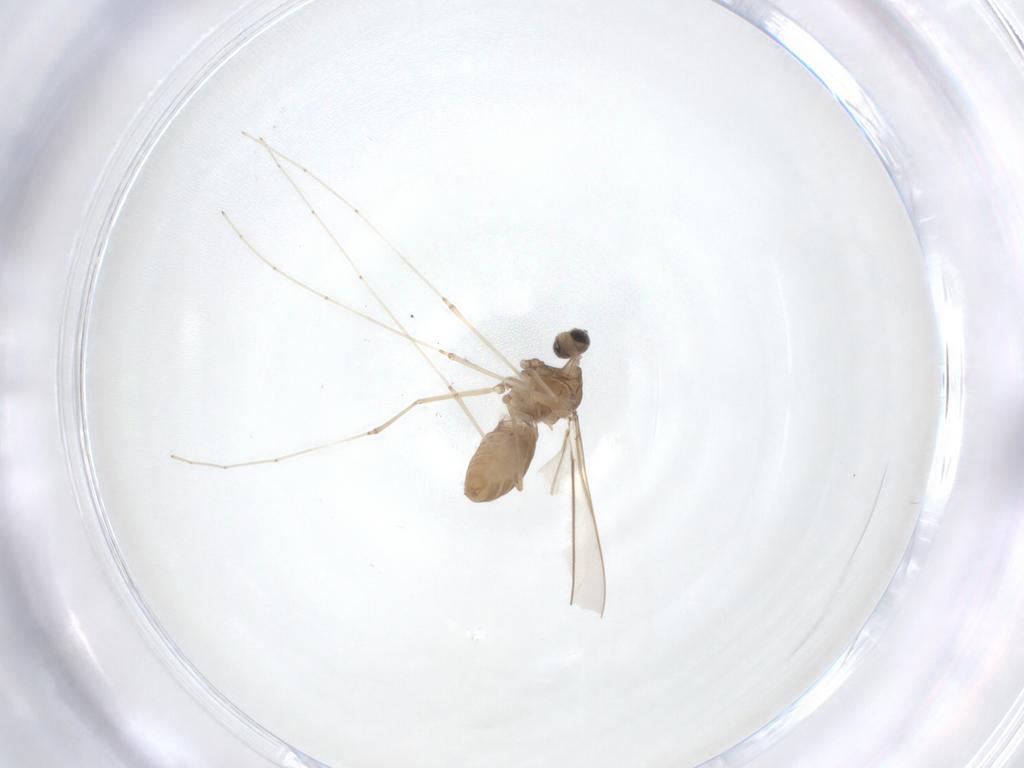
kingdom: Animalia
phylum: Arthropoda
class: Insecta
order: Diptera
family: Cecidomyiidae
